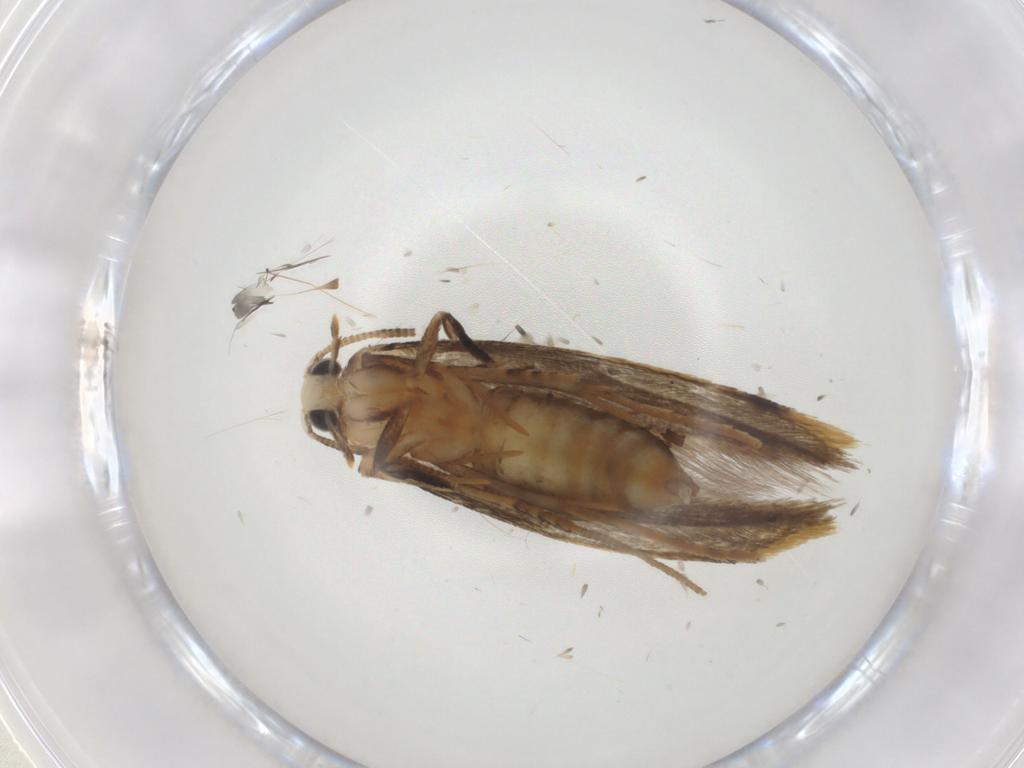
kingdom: Animalia
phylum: Arthropoda
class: Insecta
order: Lepidoptera
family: Tineidae
